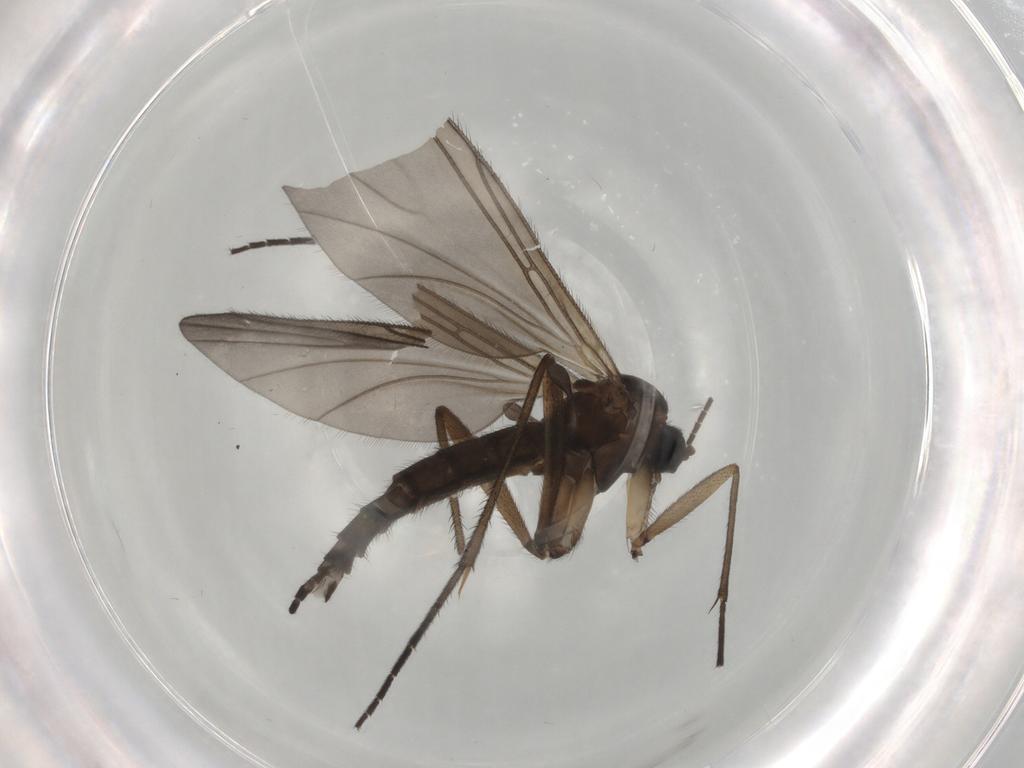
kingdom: Animalia
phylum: Arthropoda
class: Insecta
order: Diptera
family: Sciaridae
